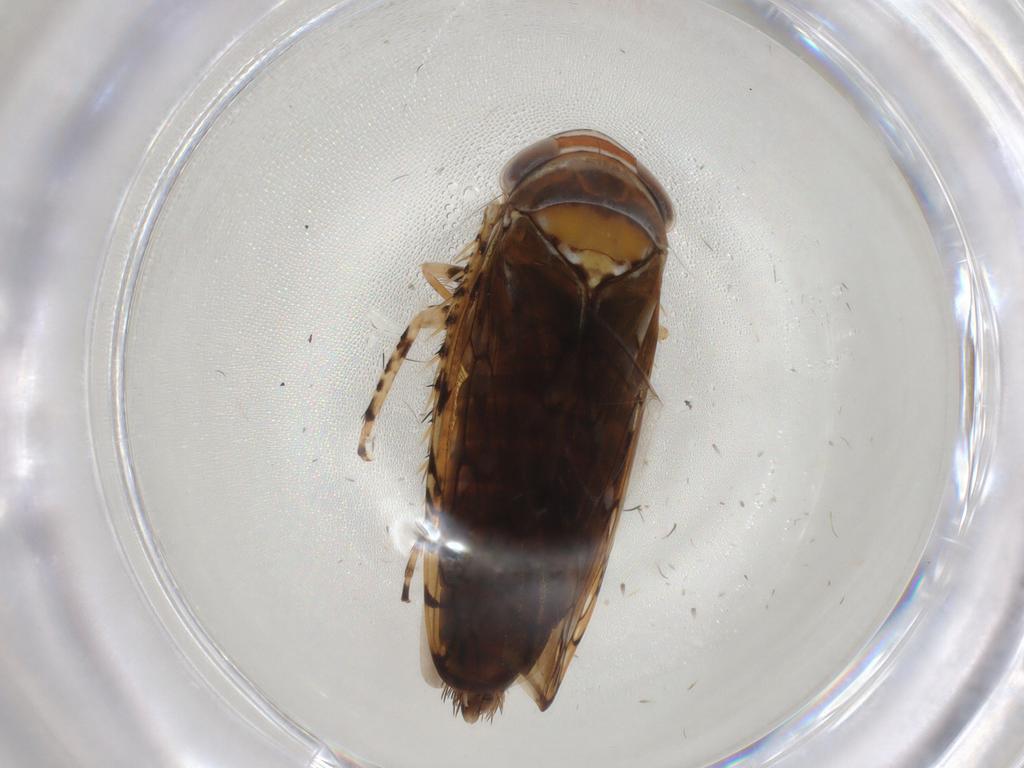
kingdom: Animalia
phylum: Arthropoda
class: Insecta
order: Hemiptera
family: Cicadellidae
